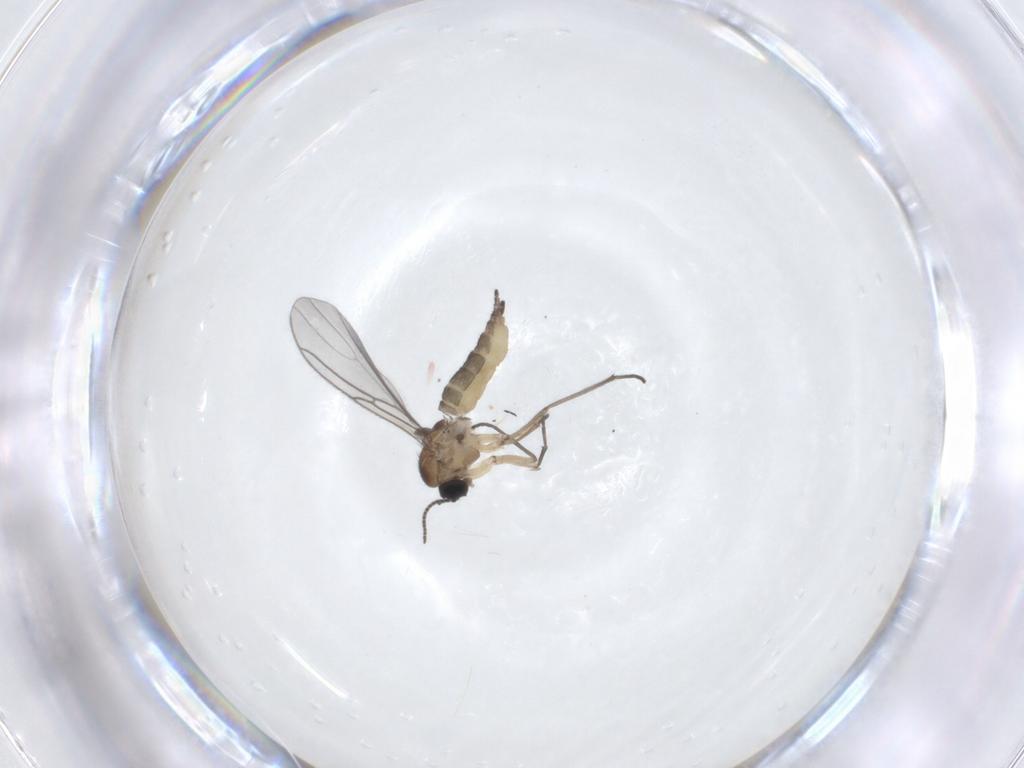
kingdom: Animalia
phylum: Arthropoda
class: Insecta
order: Diptera
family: Sciaridae
